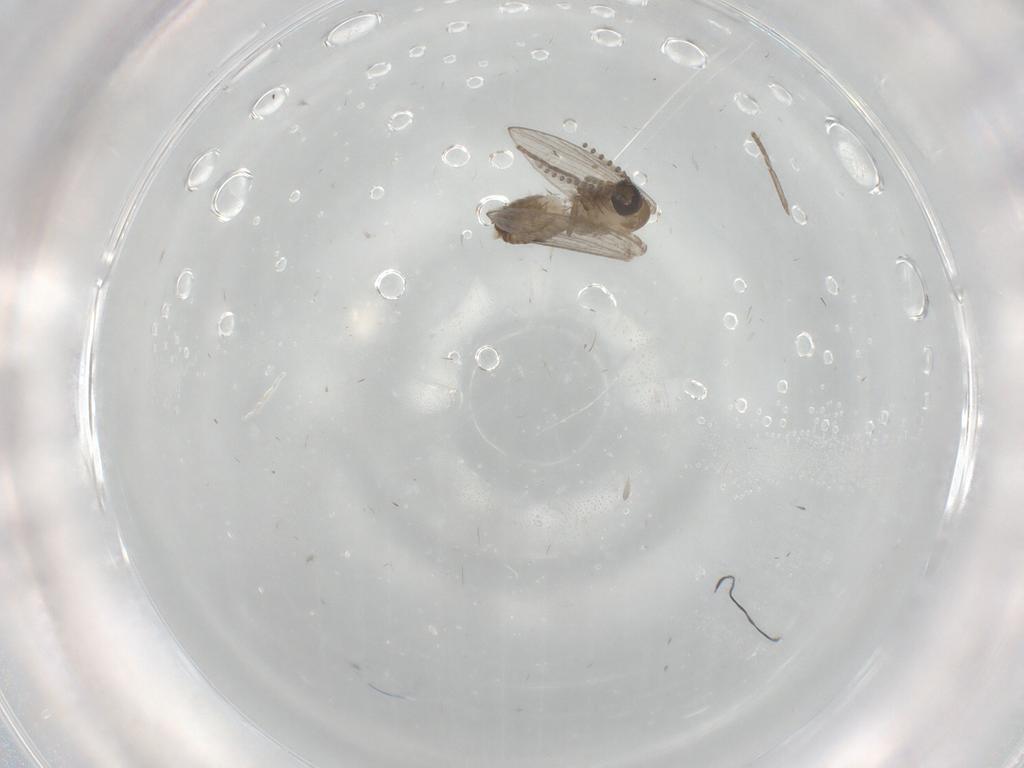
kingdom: Animalia
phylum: Arthropoda
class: Insecta
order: Diptera
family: Psychodidae
